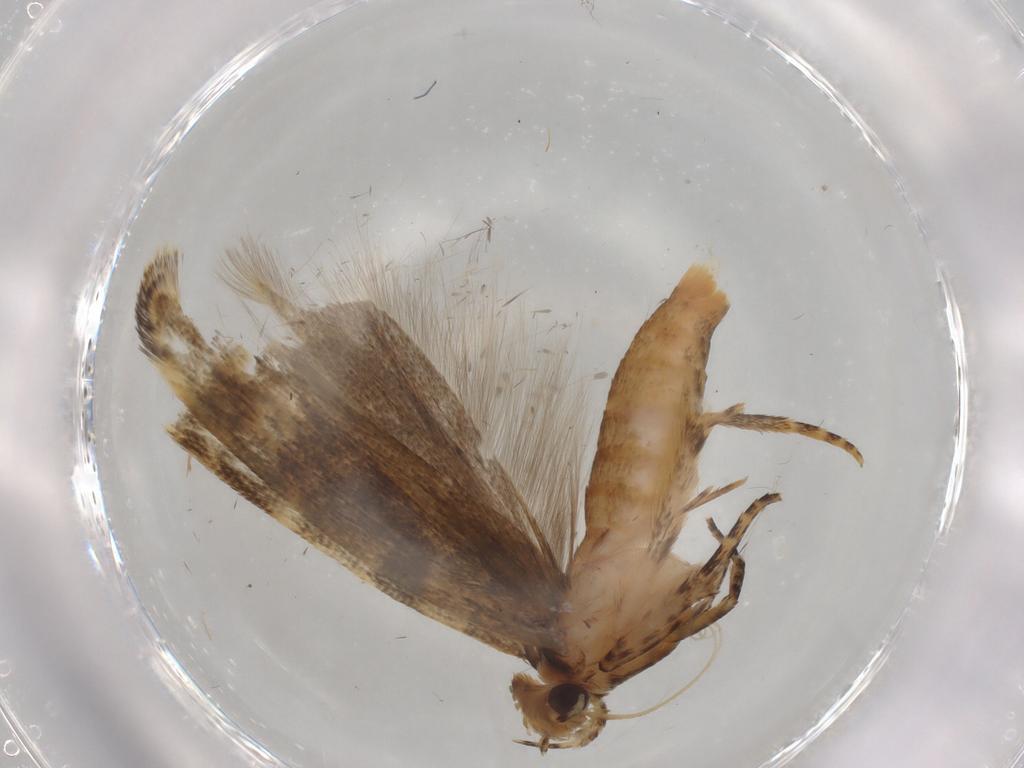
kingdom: Animalia
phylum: Arthropoda
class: Insecta
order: Lepidoptera
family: Gelechiidae
